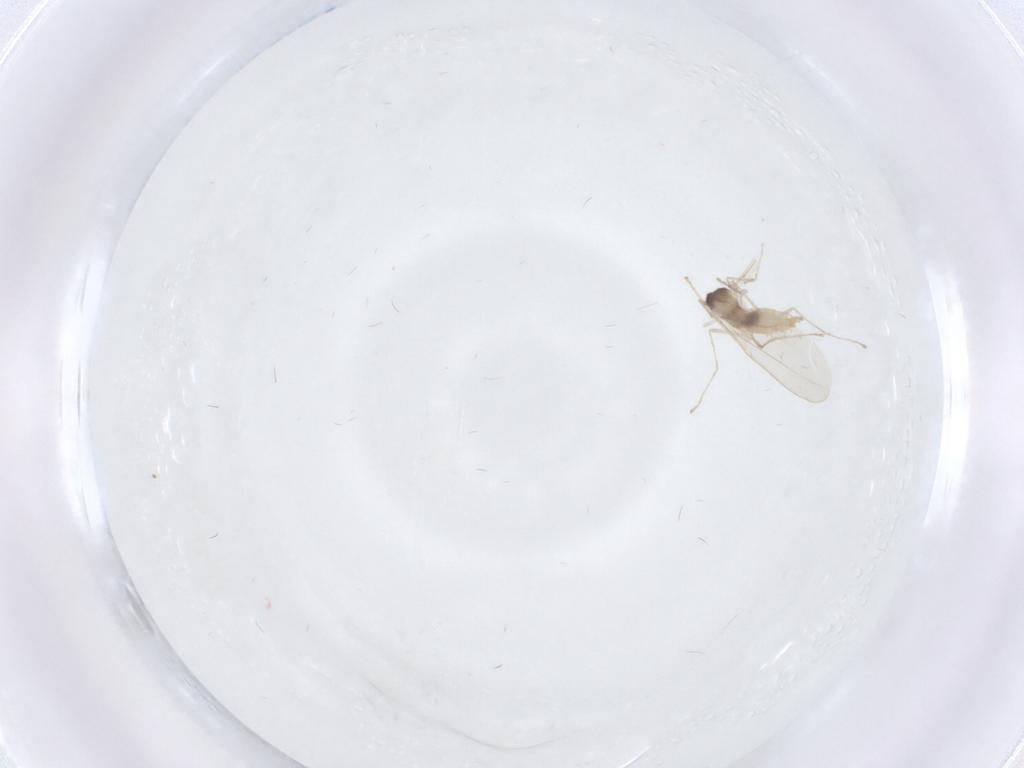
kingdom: Animalia
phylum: Arthropoda
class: Insecta
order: Diptera
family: Cecidomyiidae
